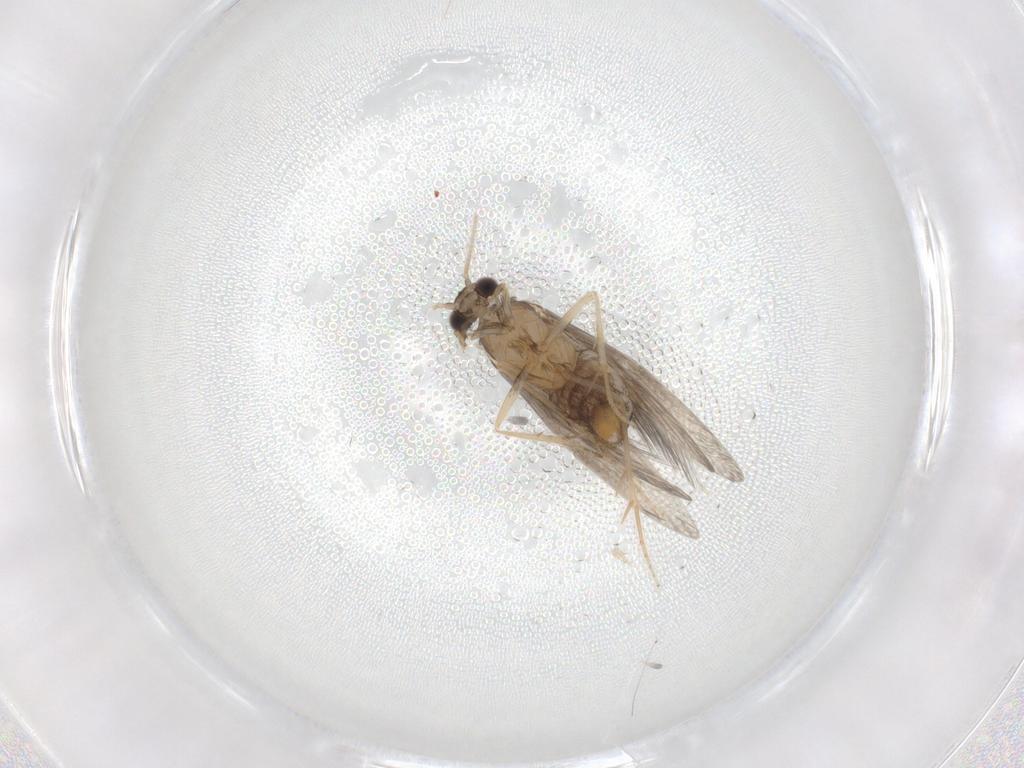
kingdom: Animalia
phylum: Arthropoda
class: Insecta
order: Trichoptera
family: Hydroptilidae
